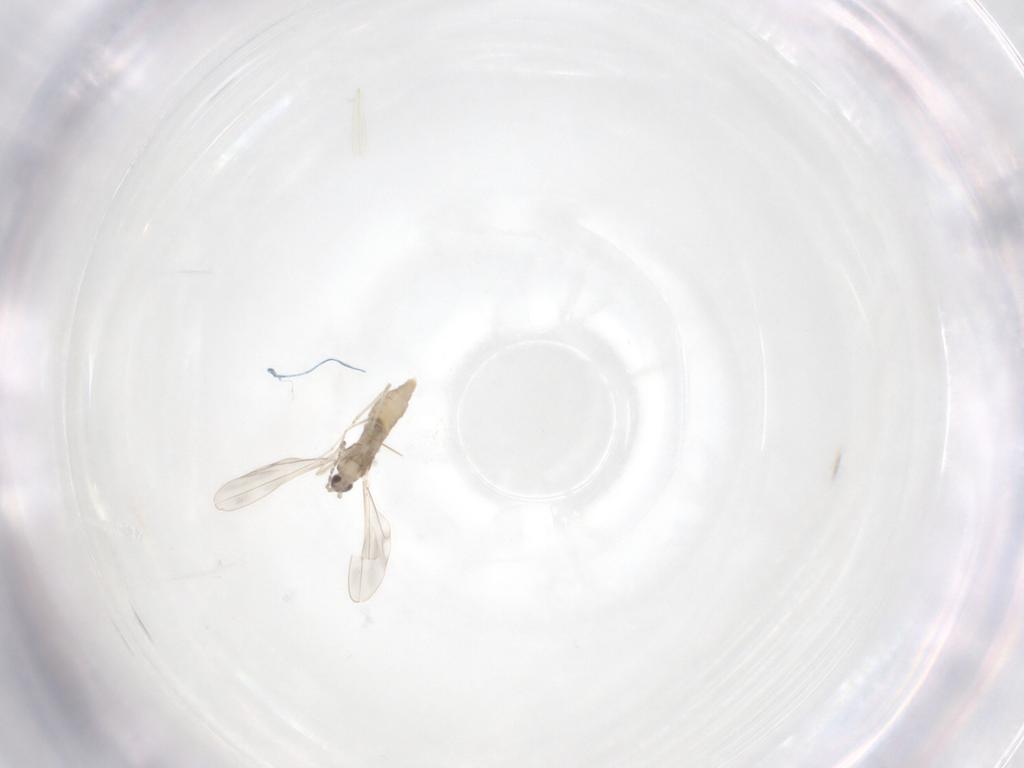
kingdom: Animalia
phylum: Arthropoda
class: Insecta
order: Diptera
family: Cecidomyiidae
